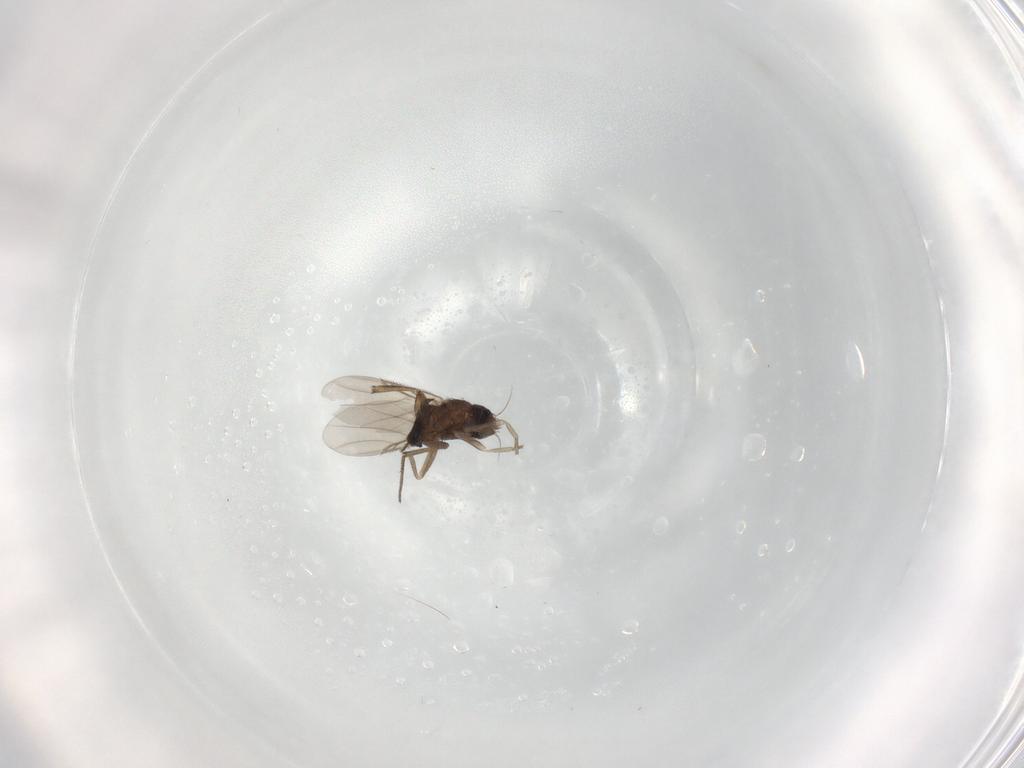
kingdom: Animalia
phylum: Arthropoda
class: Insecta
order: Diptera
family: Phoridae
